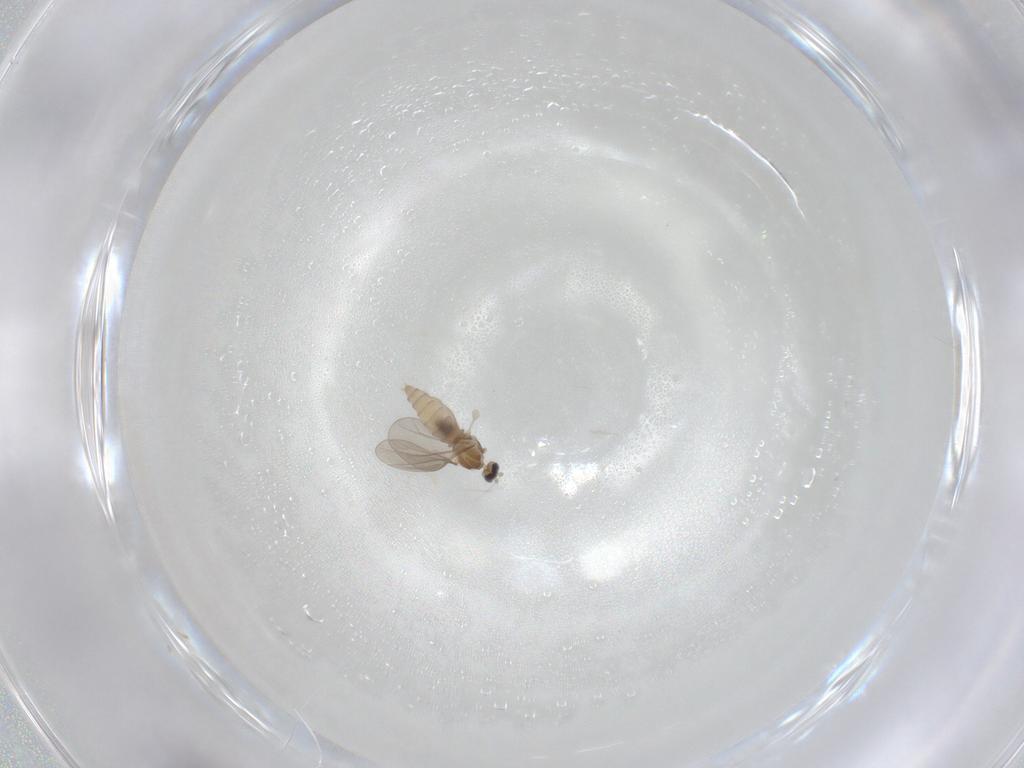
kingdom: Animalia
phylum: Arthropoda
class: Insecta
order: Diptera
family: Cecidomyiidae
